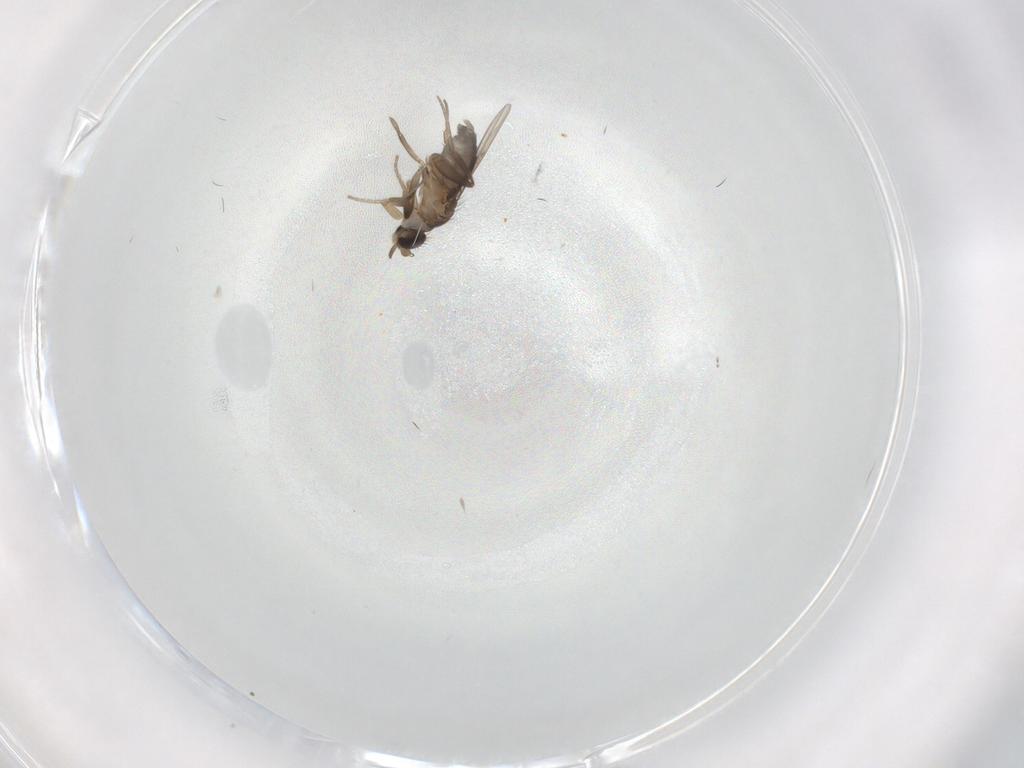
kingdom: Animalia
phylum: Arthropoda
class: Insecta
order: Diptera
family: Phoridae
